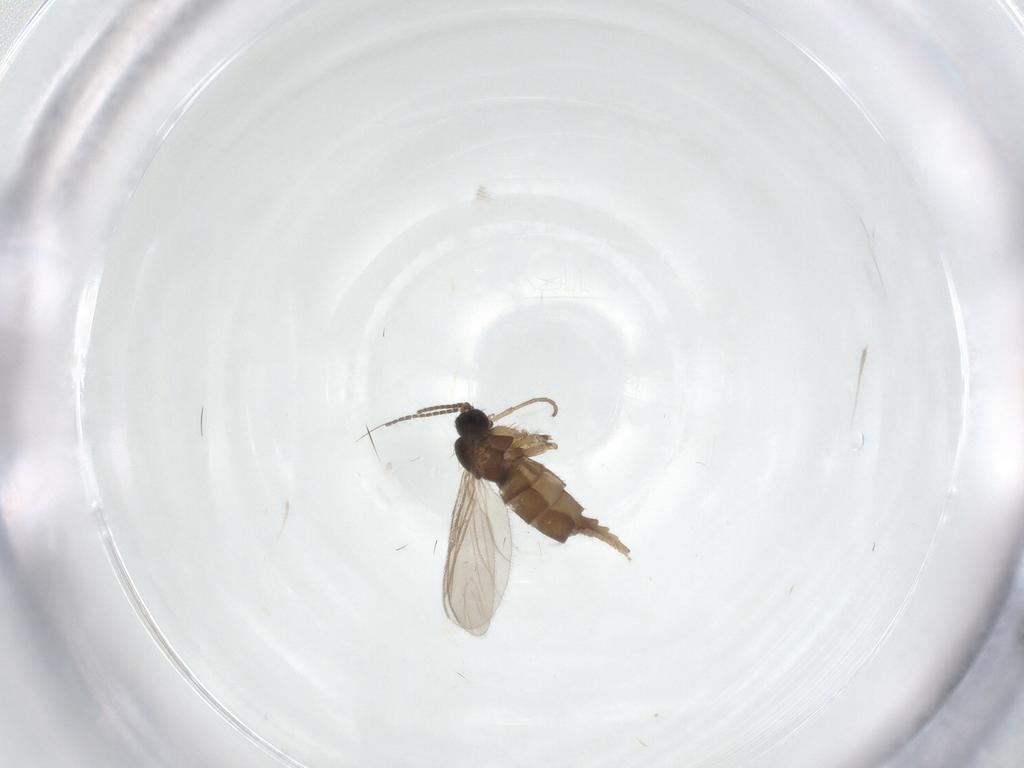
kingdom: Animalia
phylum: Arthropoda
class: Insecta
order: Diptera
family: Sciaridae
